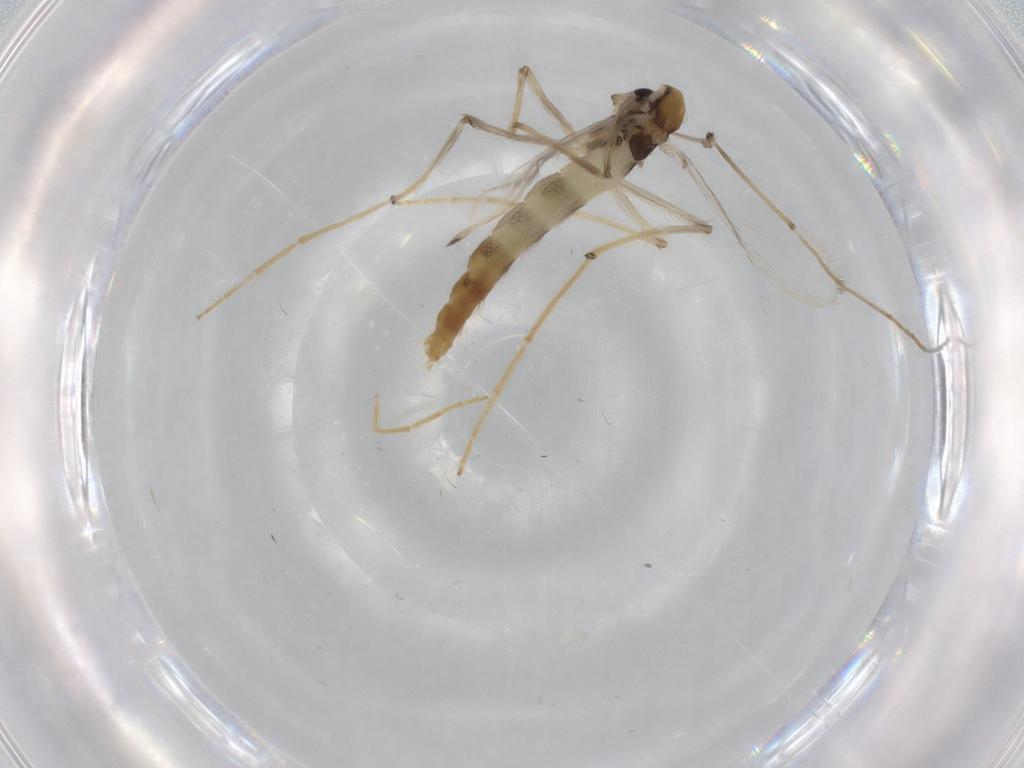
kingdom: Animalia
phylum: Arthropoda
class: Insecta
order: Diptera
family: Chironomidae
